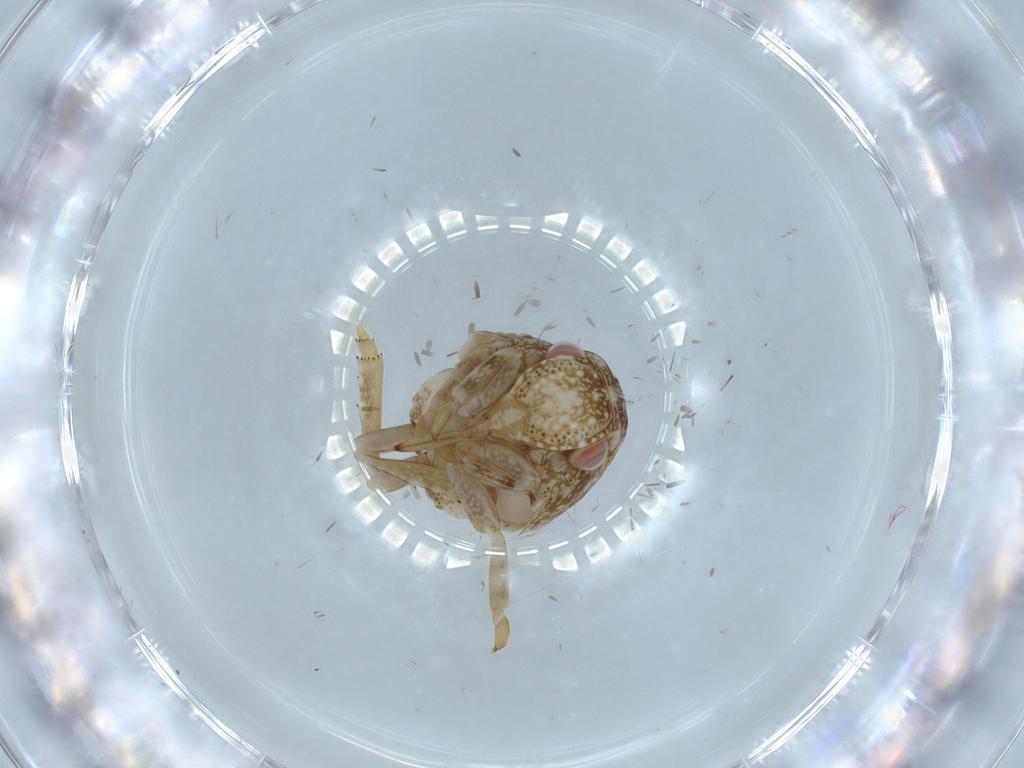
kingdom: Animalia
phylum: Arthropoda
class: Insecta
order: Hemiptera
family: Acanaloniidae
